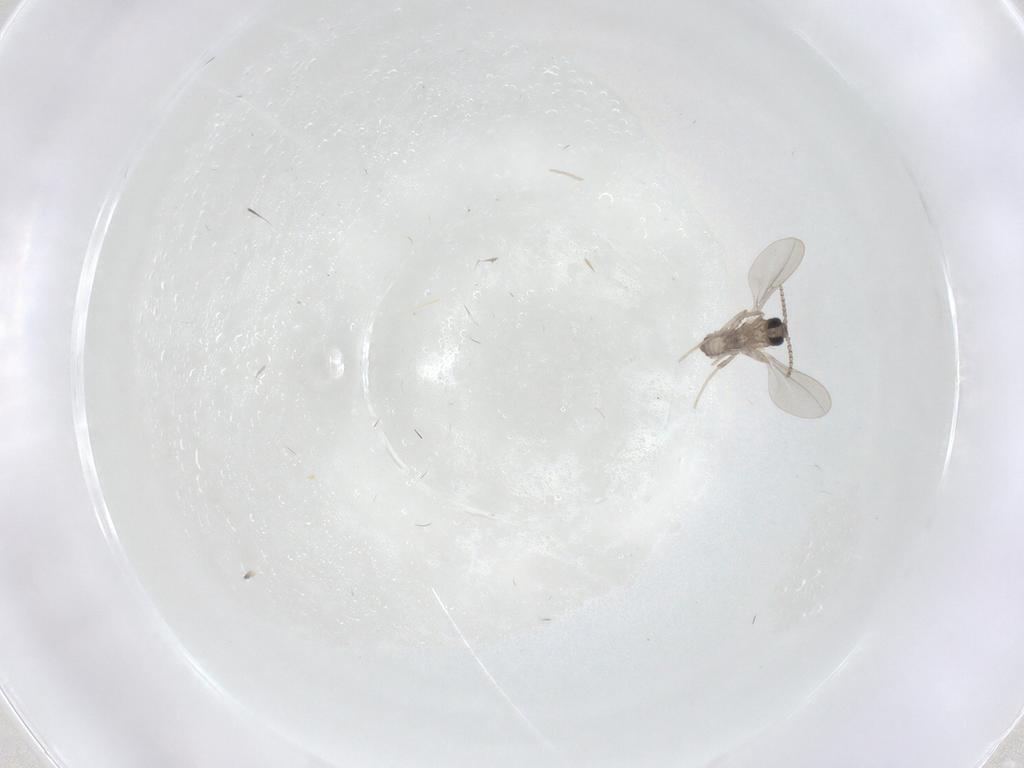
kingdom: Animalia
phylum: Arthropoda
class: Insecta
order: Diptera
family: Cecidomyiidae
